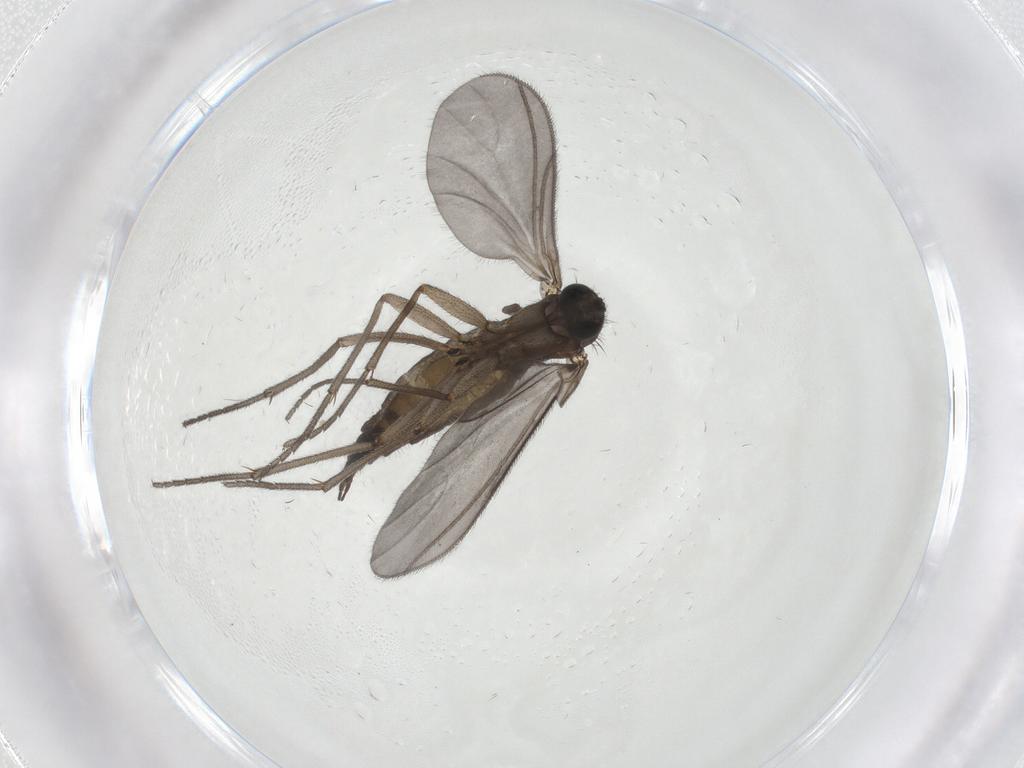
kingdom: Animalia
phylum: Arthropoda
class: Insecta
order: Diptera
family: Sciaridae
